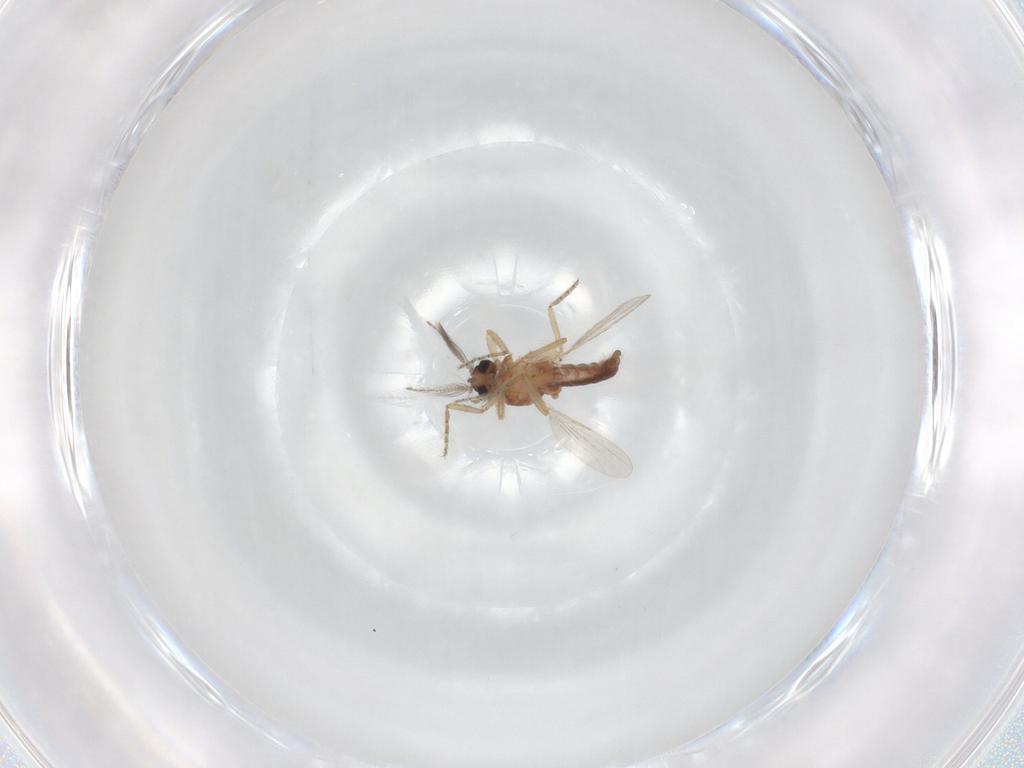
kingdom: Animalia
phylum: Arthropoda
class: Insecta
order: Diptera
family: Ceratopogonidae
